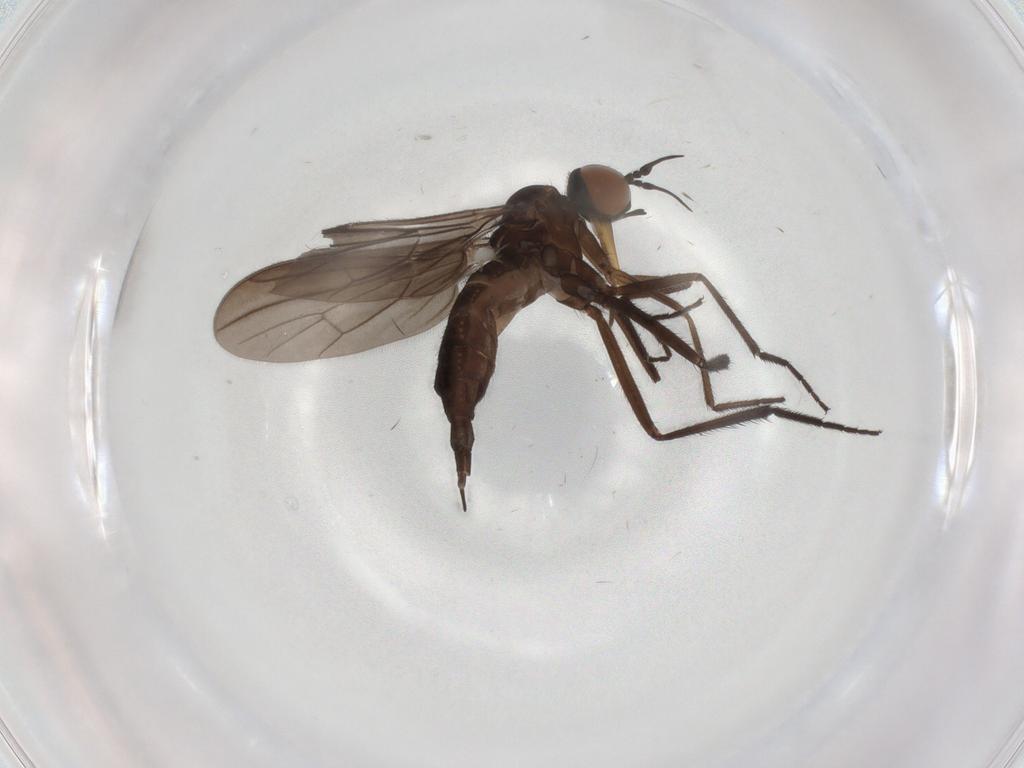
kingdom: Animalia
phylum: Arthropoda
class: Insecta
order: Diptera
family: Empididae
